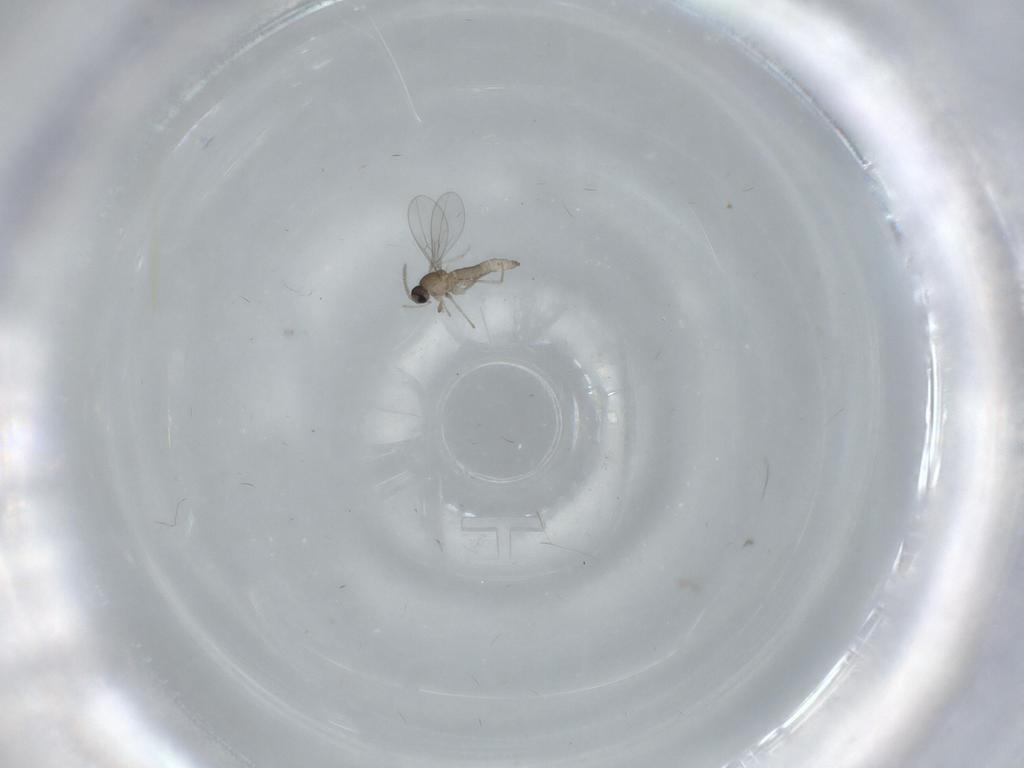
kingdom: Animalia
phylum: Arthropoda
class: Insecta
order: Diptera
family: Cecidomyiidae
